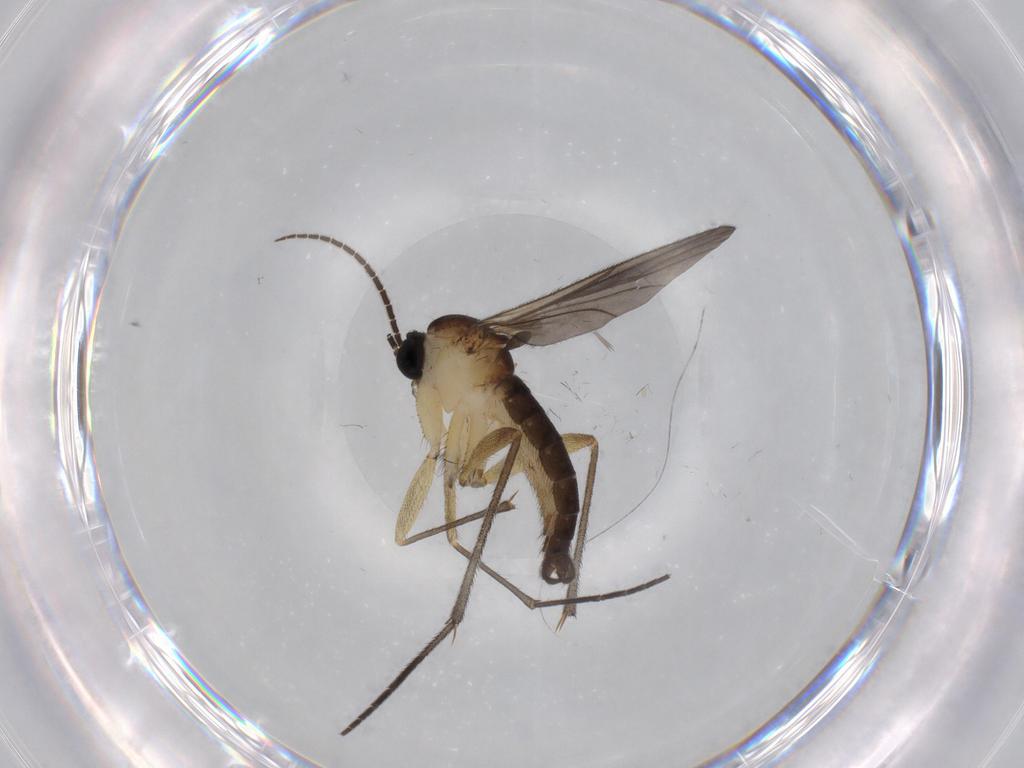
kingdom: Animalia
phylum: Arthropoda
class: Insecta
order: Diptera
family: Sciaridae
